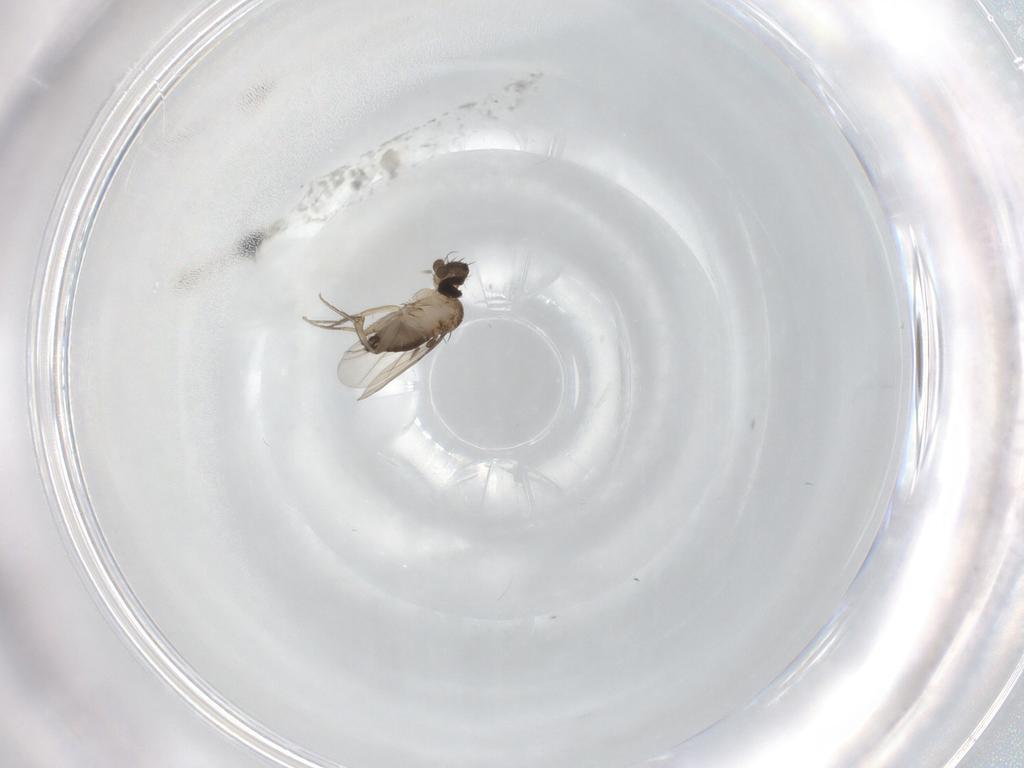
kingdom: Animalia
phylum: Arthropoda
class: Insecta
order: Diptera
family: Phoridae
